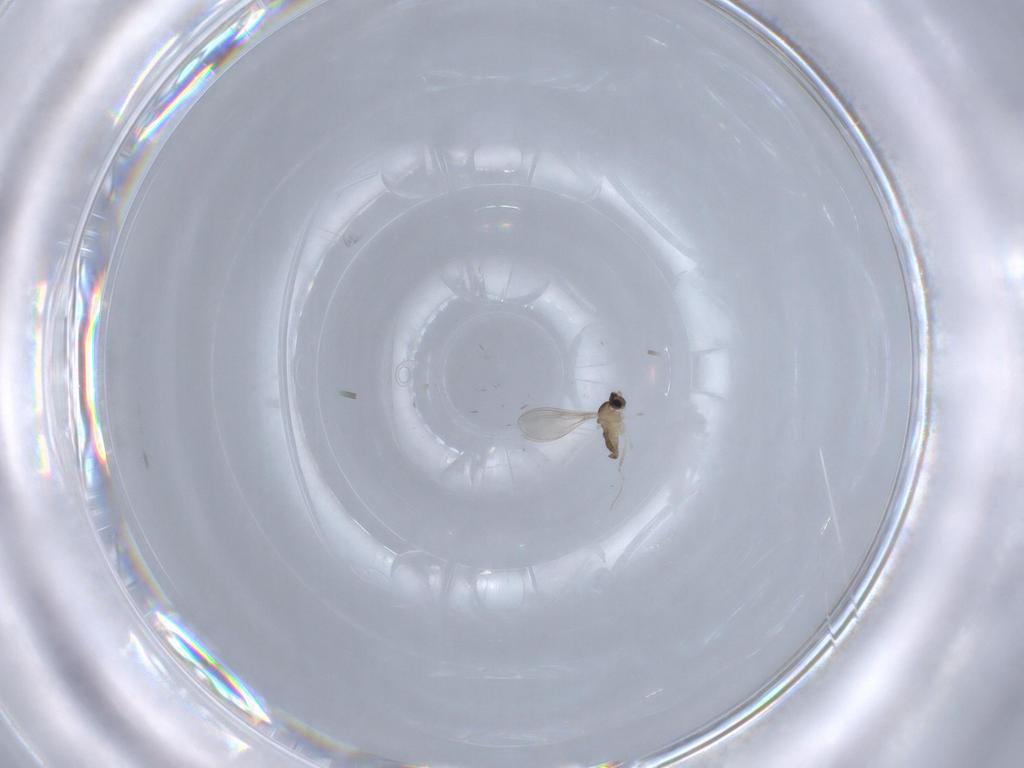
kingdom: Animalia
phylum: Arthropoda
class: Insecta
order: Diptera
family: Cecidomyiidae
